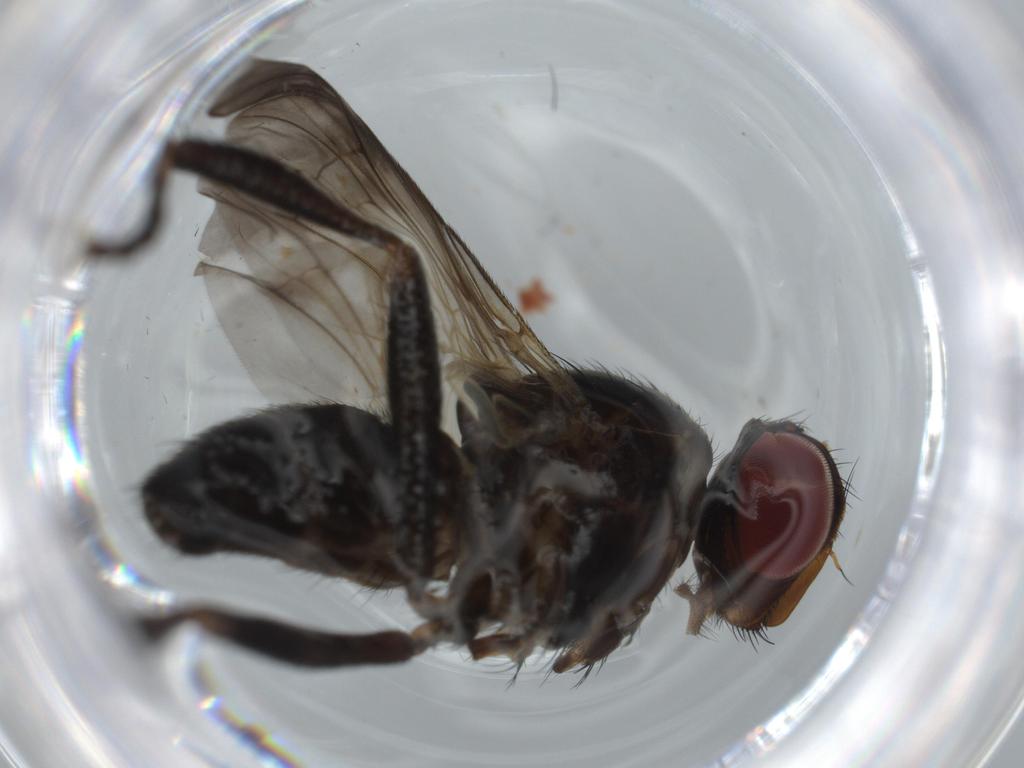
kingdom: Animalia
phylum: Arthropoda
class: Insecta
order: Diptera
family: Calliphoridae
